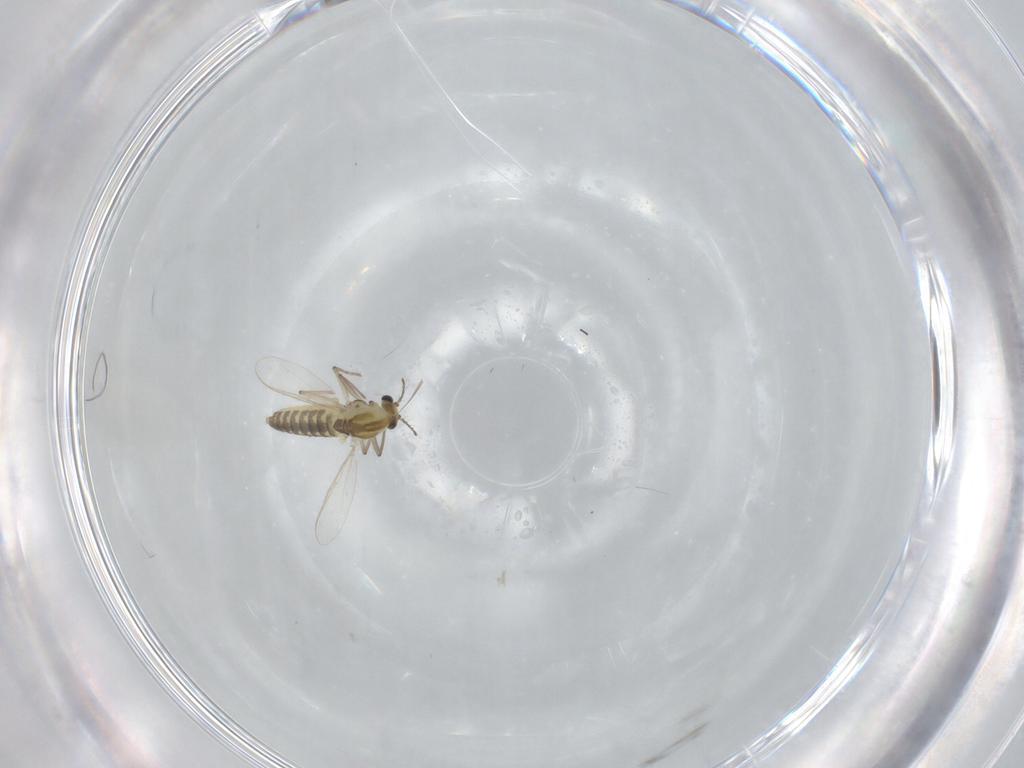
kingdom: Animalia
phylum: Arthropoda
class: Insecta
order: Diptera
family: Chironomidae
